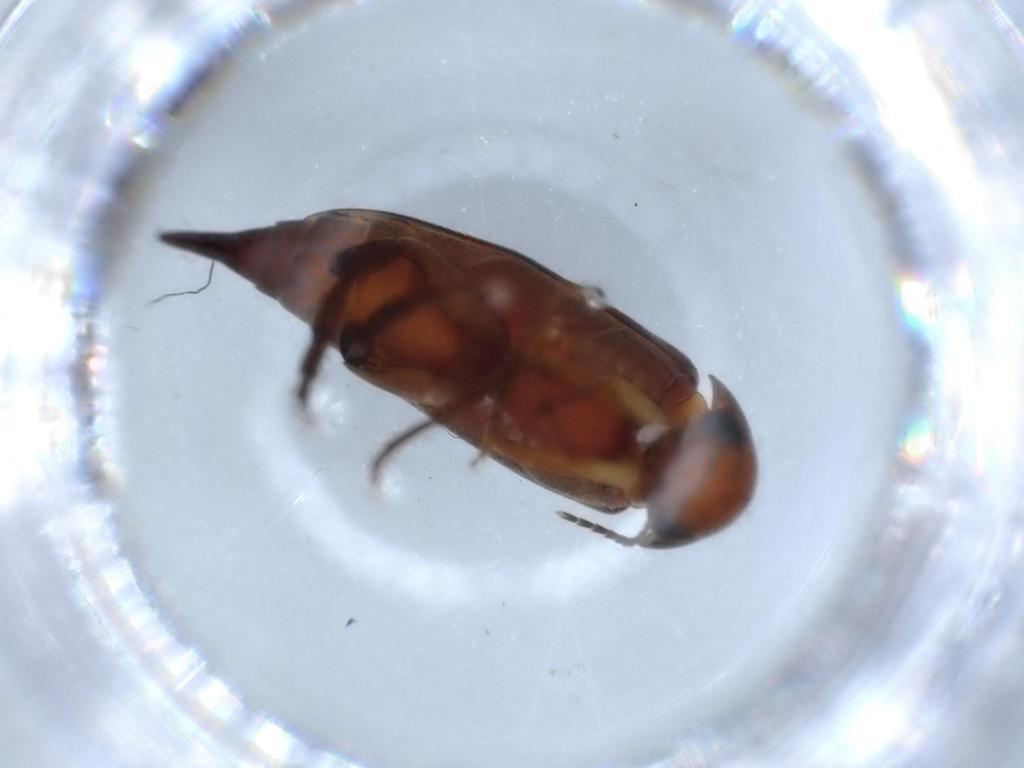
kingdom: Animalia
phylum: Arthropoda
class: Insecta
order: Coleoptera
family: Mordellidae
